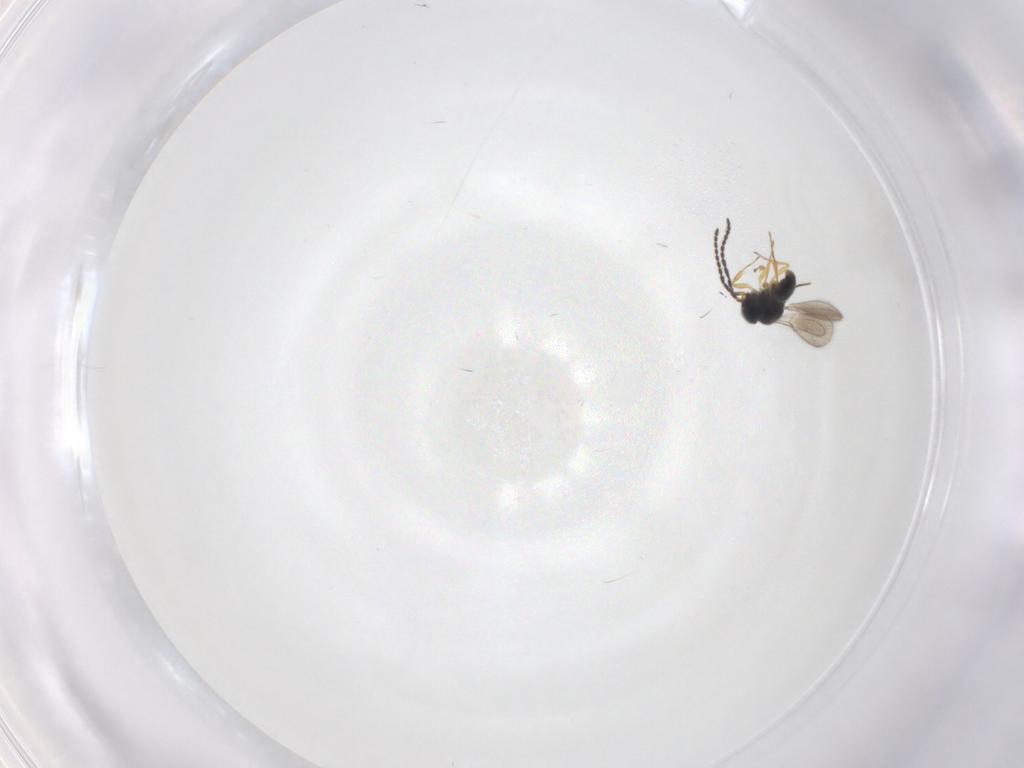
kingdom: Animalia
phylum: Arthropoda
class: Insecta
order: Hymenoptera
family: Scelionidae
